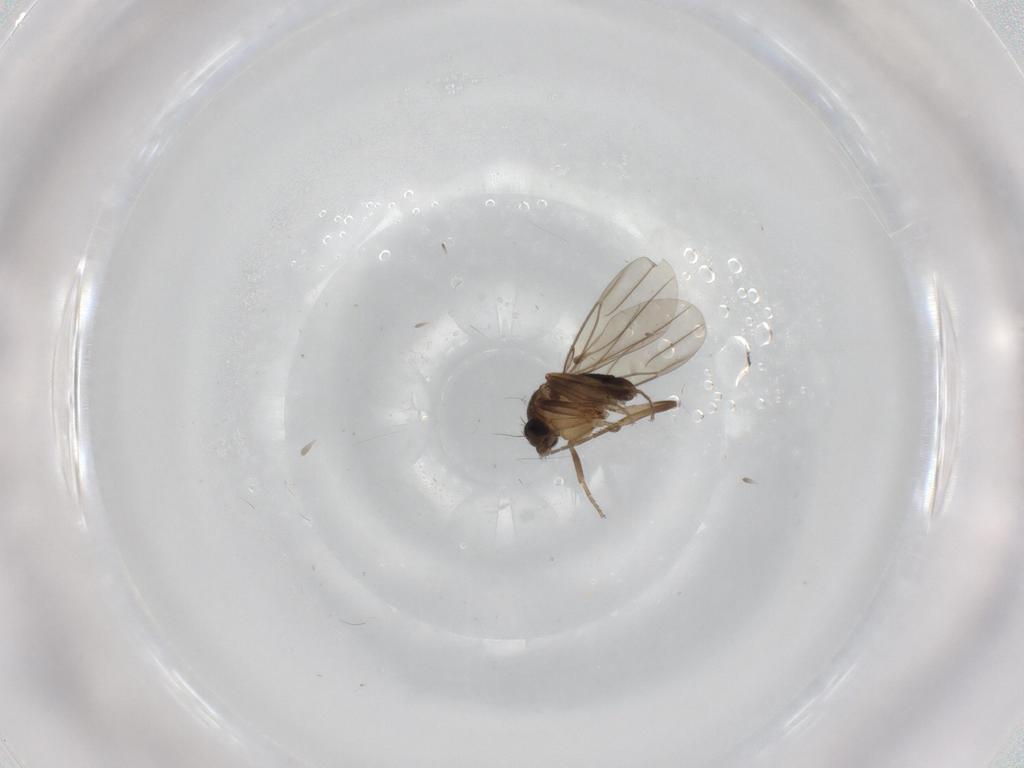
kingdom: Animalia
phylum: Arthropoda
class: Insecta
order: Diptera
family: Phoridae
